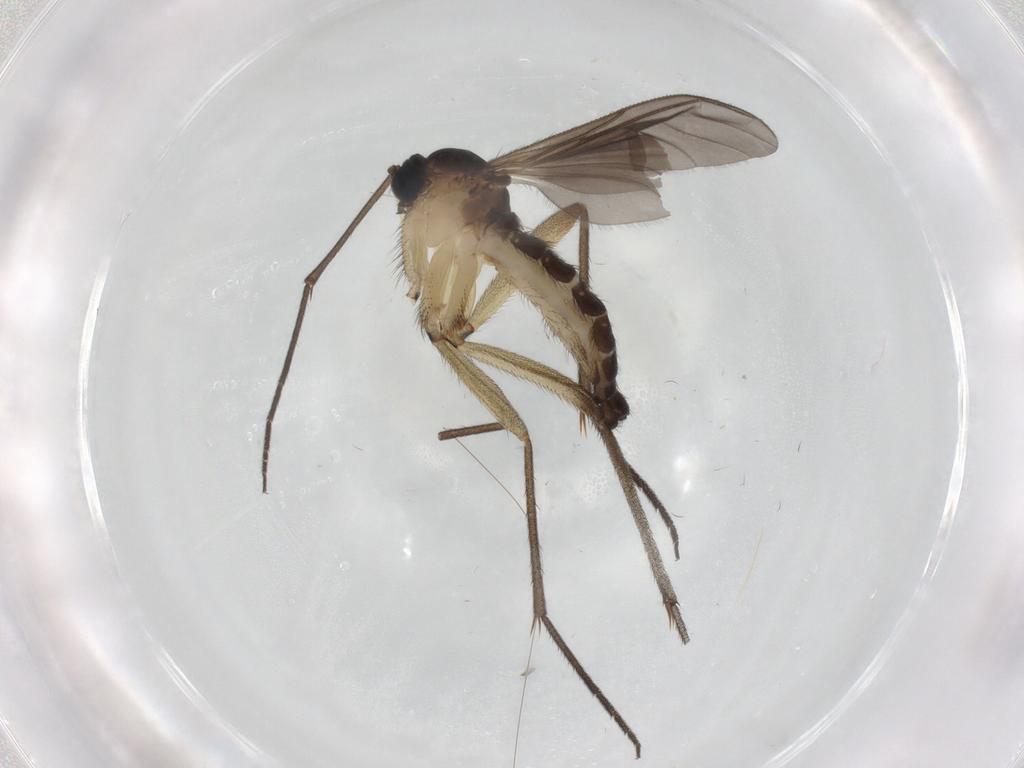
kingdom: Animalia
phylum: Arthropoda
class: Insecta
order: Diptera
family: Sciaridae
